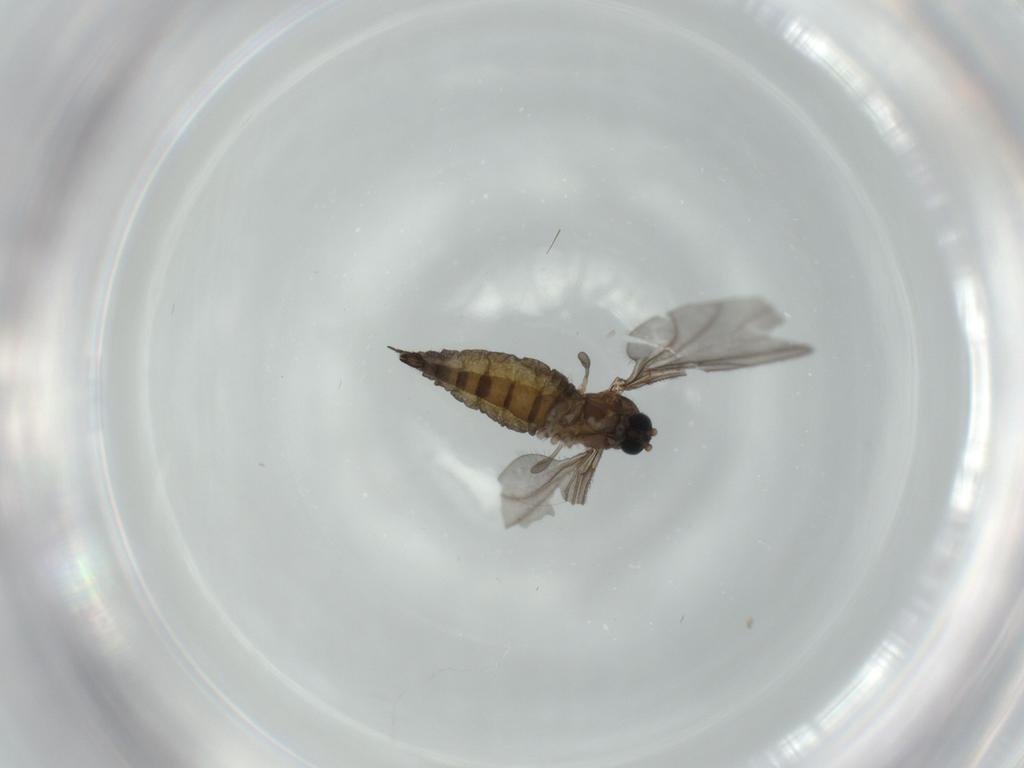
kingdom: Animalia
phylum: Arthropoda
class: Insecta
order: Diptera
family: Sciaridae
